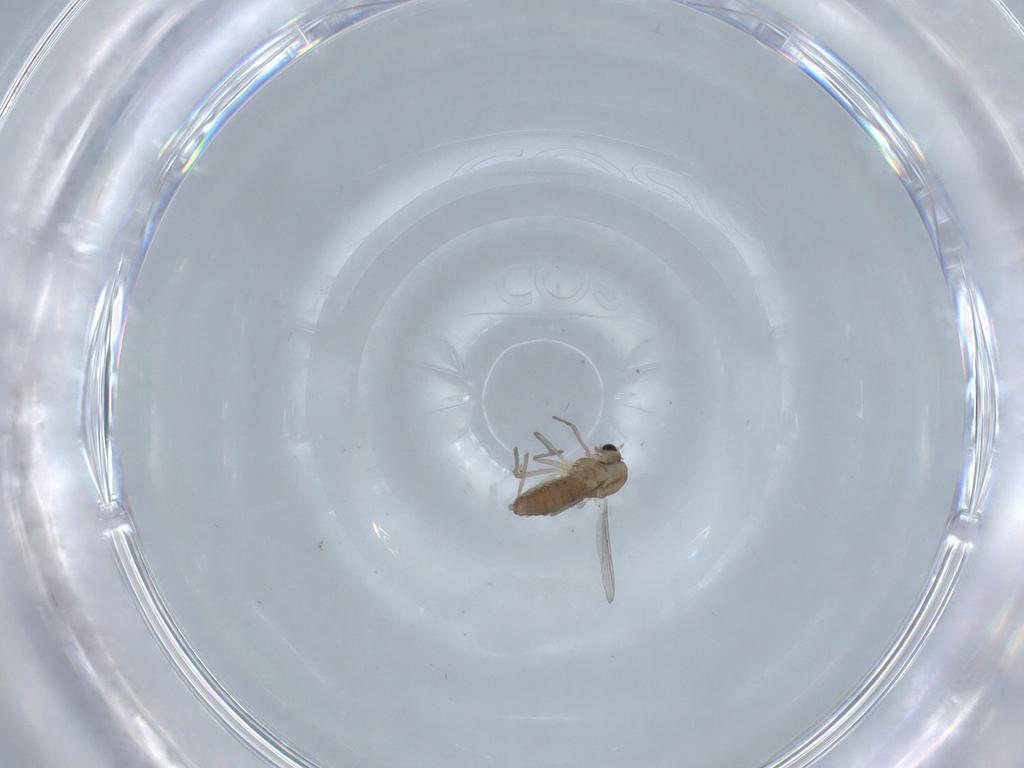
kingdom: Animalia
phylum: Arthropoda
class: Insecta
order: Diptera
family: Chironomidae
